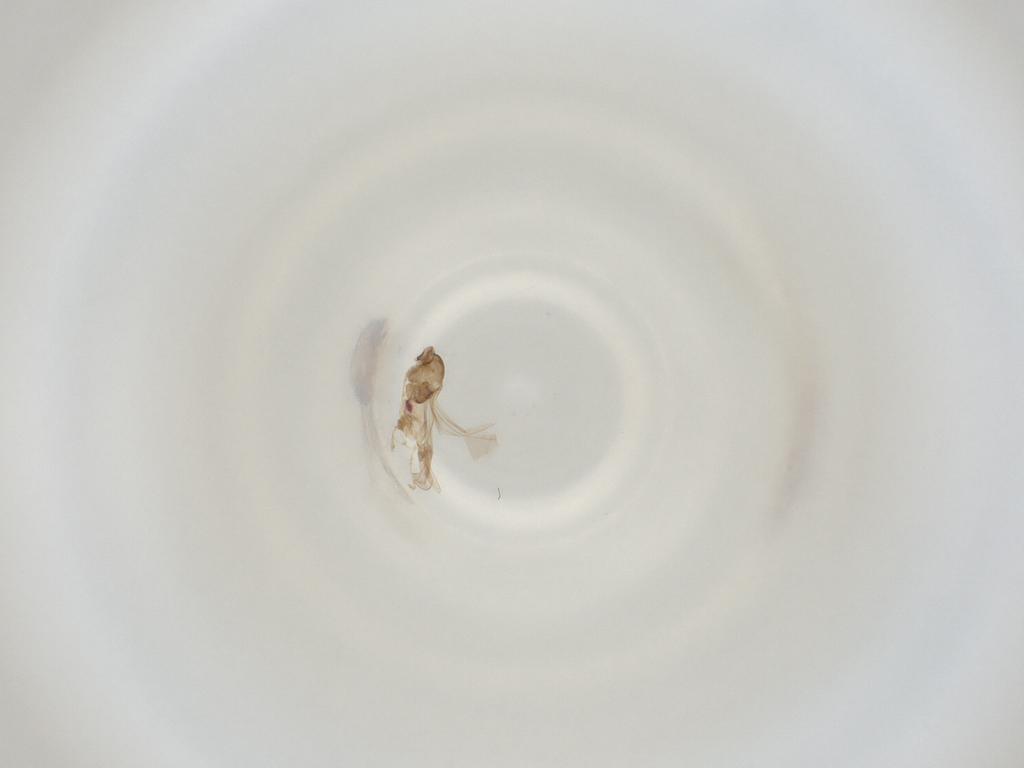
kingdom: Animalia
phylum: Arthropoda
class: Insecta
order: Diptera
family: Cecidomyiidae
